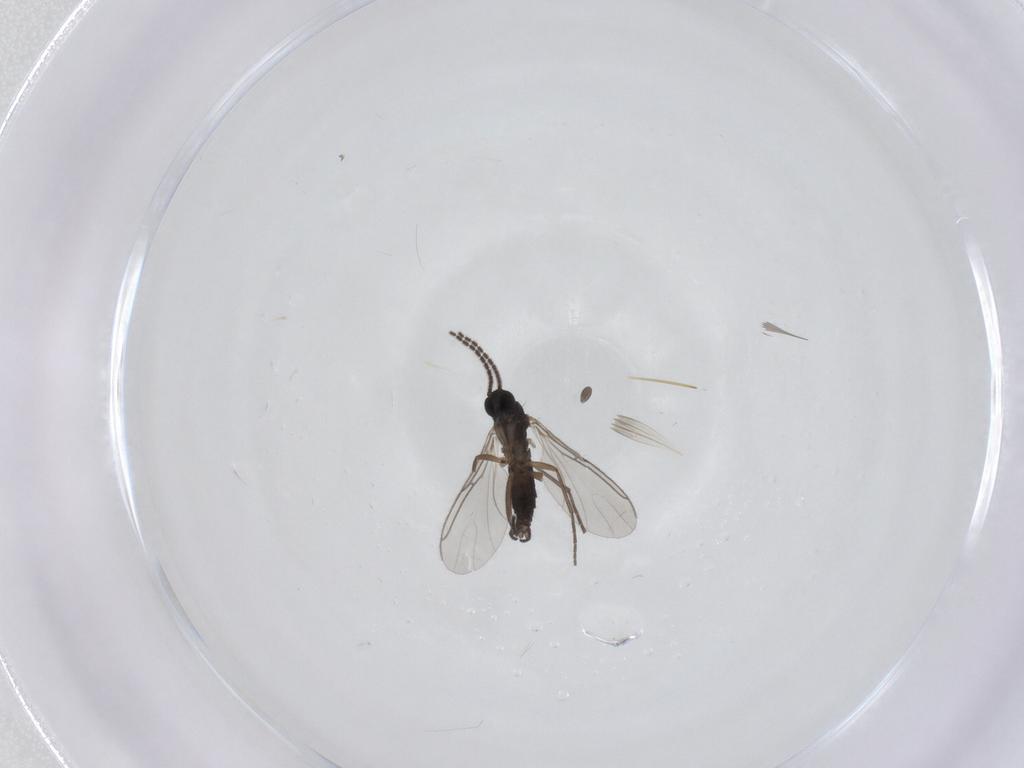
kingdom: Animalia
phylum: Arthropoda
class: Insecta
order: Diptera
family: Sciaridae
